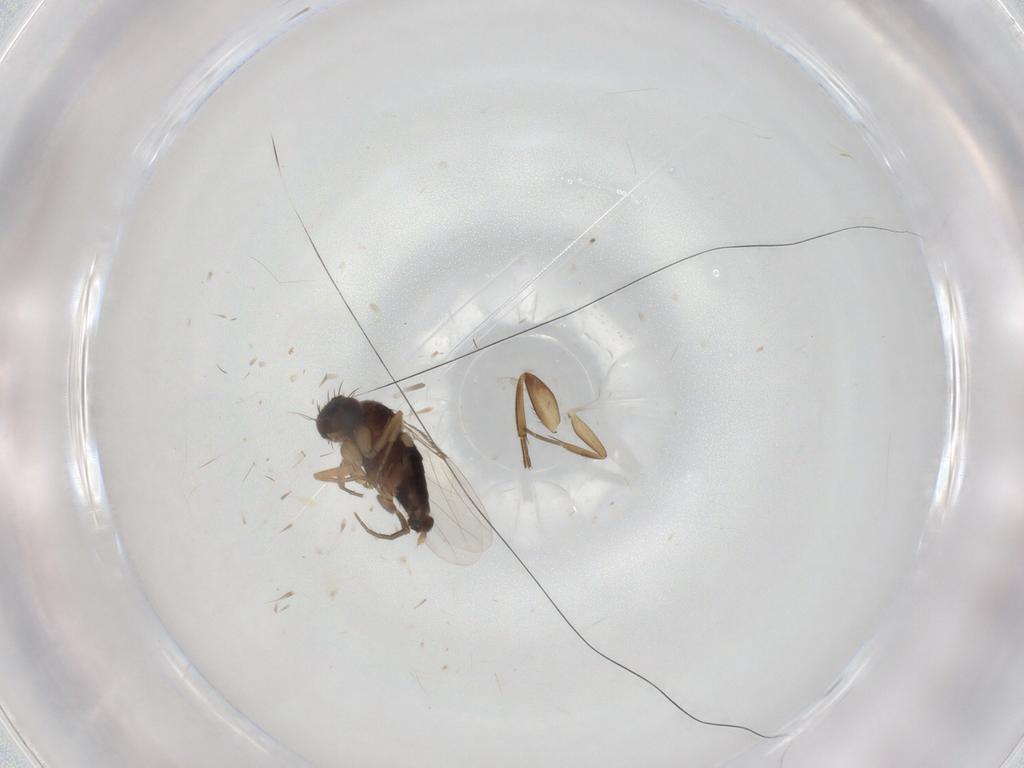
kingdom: Animalia
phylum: Arthropoda
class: Insecta
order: Diptera
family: Phoridae
